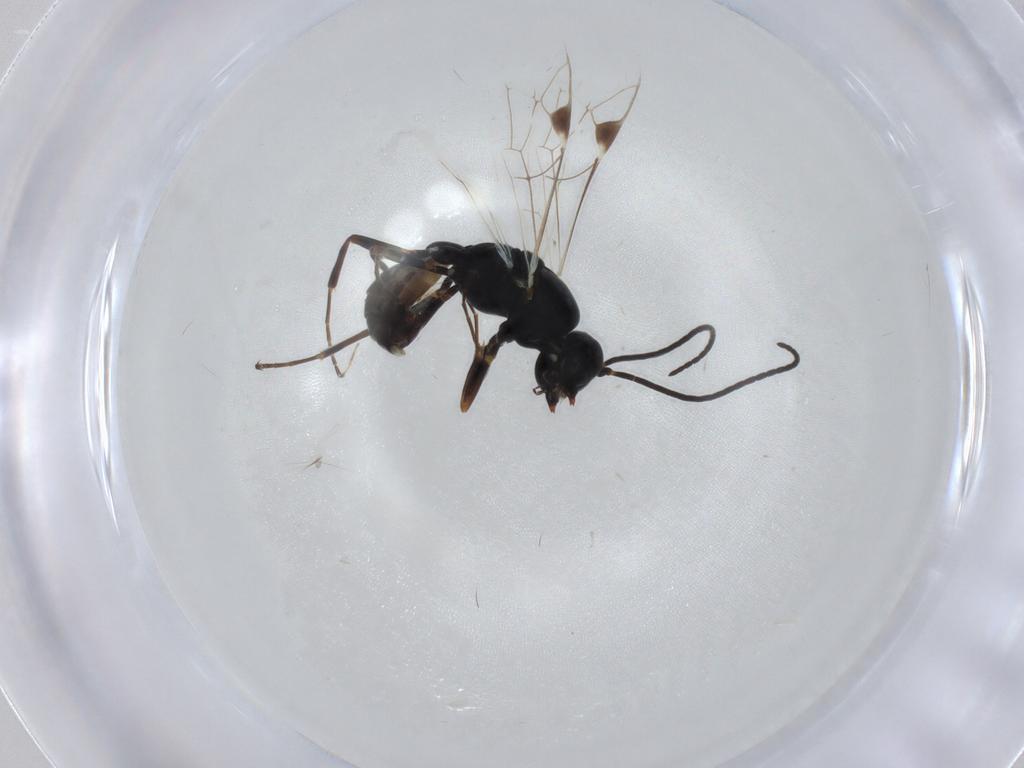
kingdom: Animalia
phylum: Arthropoda
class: Insecta
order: Hymenoptera
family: Ichneumonidae
